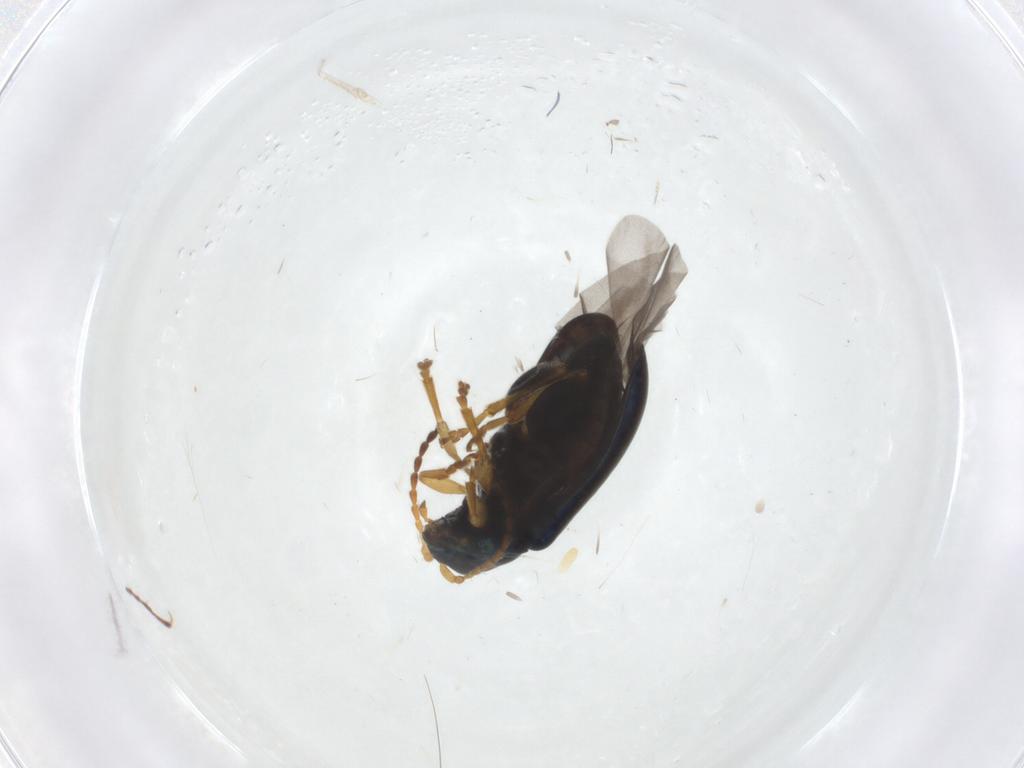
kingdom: Animalia
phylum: Arthropoda
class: Insecta
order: Coleoptera
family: Chrysomelidae
